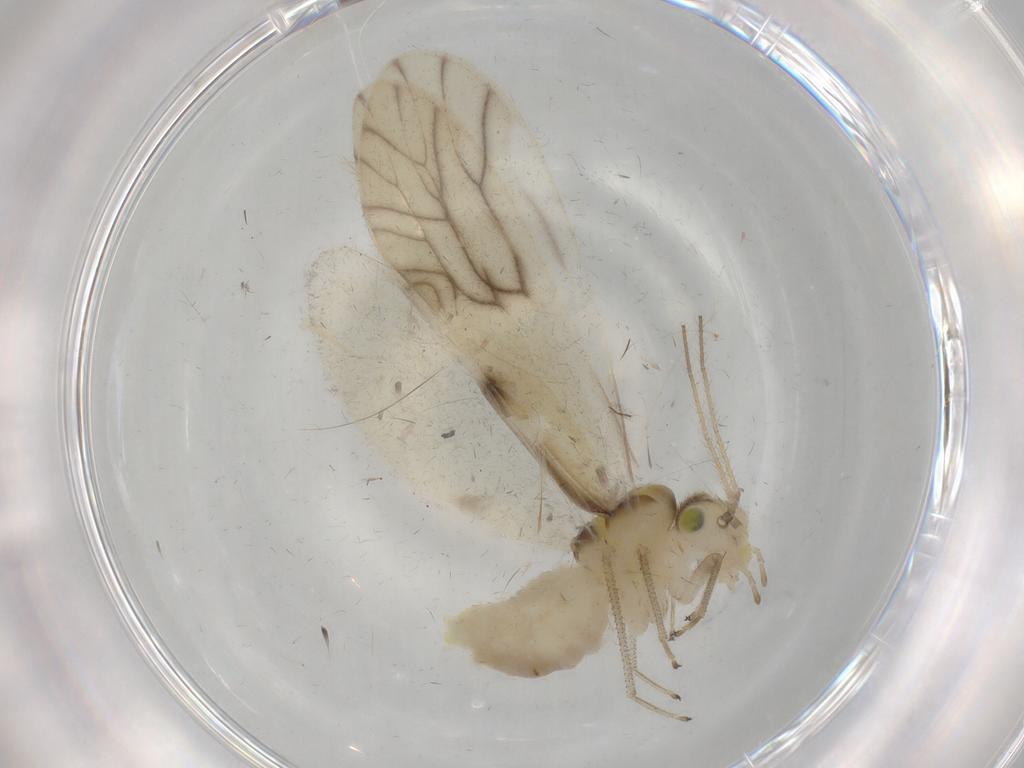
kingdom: Animalia
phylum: Arthropoda
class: Insecta
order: Psocodea
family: Caeciliusidae
